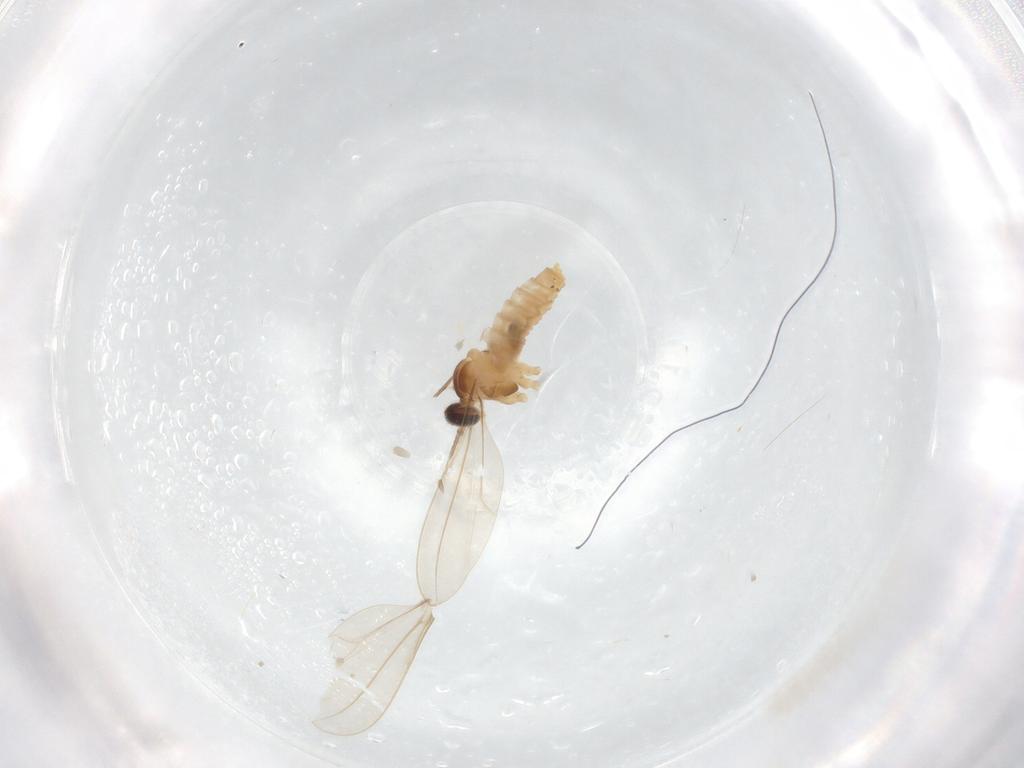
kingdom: Animalia
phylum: Arthropoda
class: Insecta
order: Diptera
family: Cecidomyiidae
